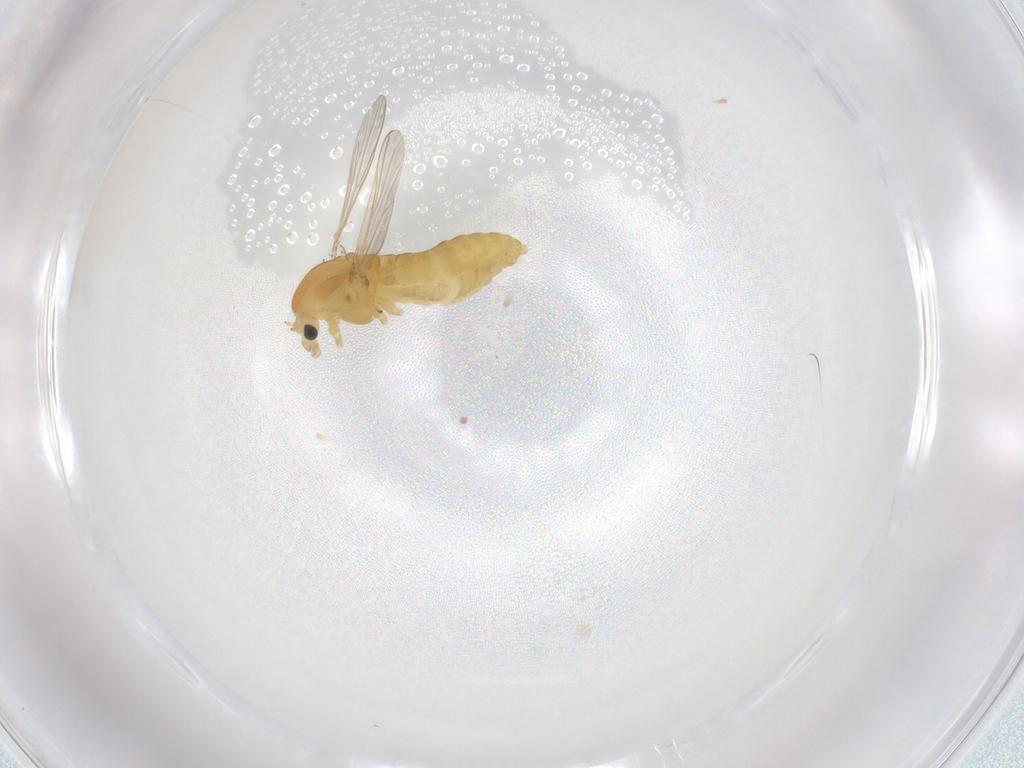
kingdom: Animalia
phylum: Arthropoda
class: Insecta
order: Diptera
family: Chironomidae
